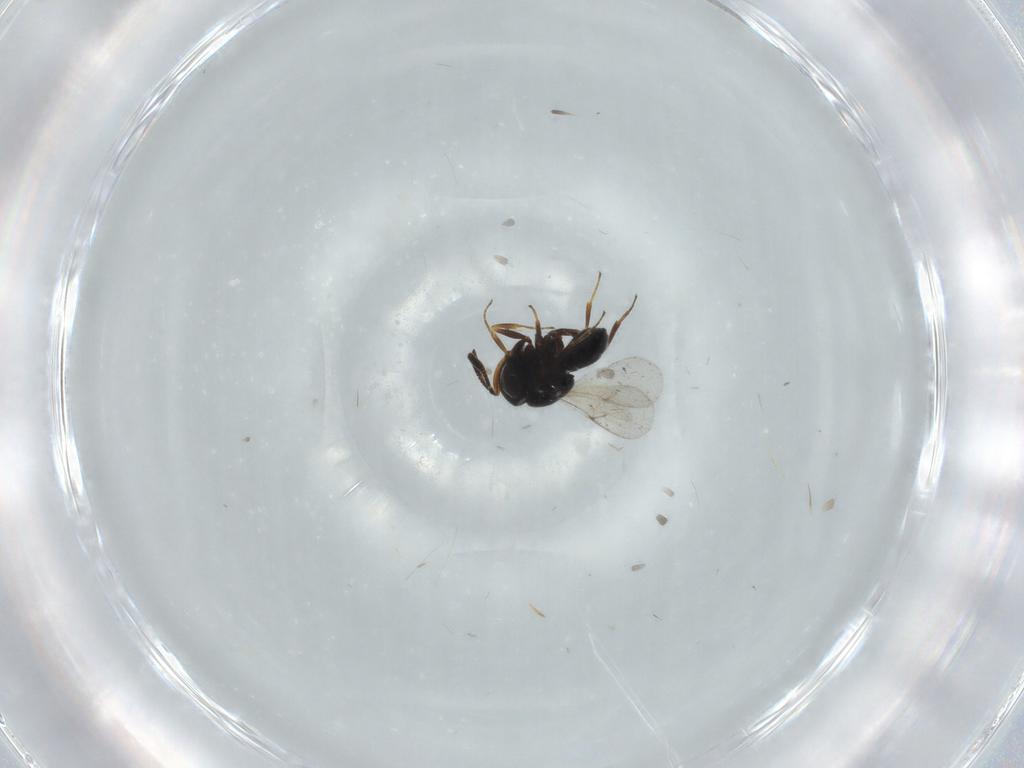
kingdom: Animalia
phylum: Arthropoda
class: Insecta
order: Hymenoptera
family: Scelionidae
